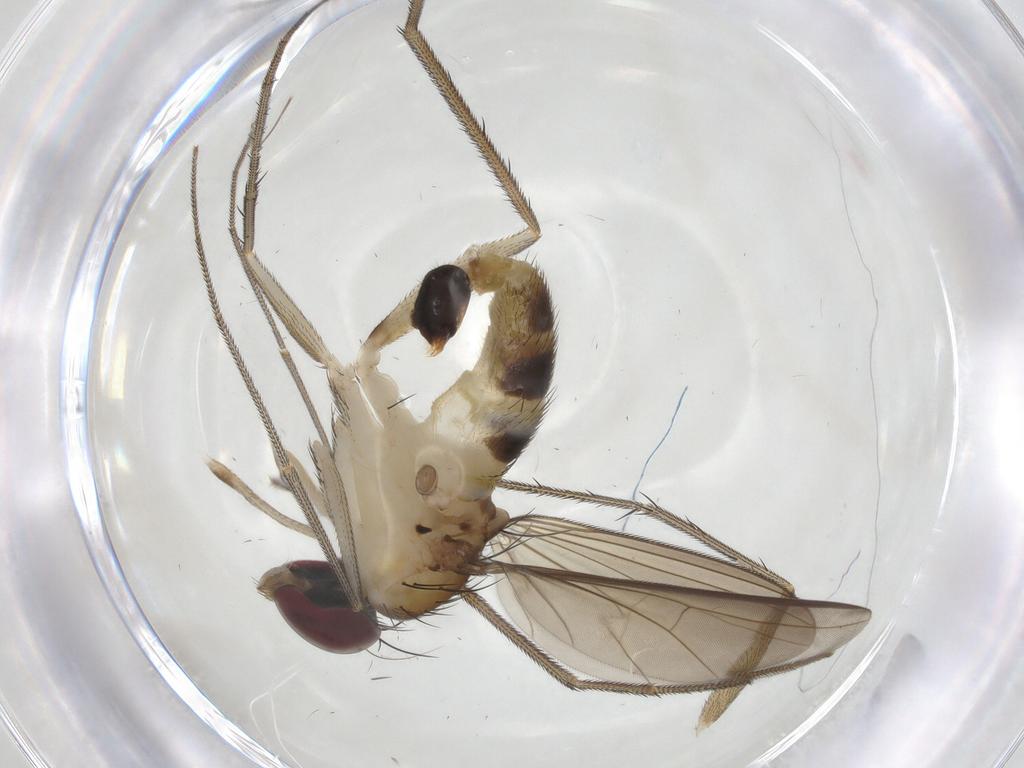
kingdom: Animalia
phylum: Arthropoda
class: Insecta
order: Diptera
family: Dolichopodidae
